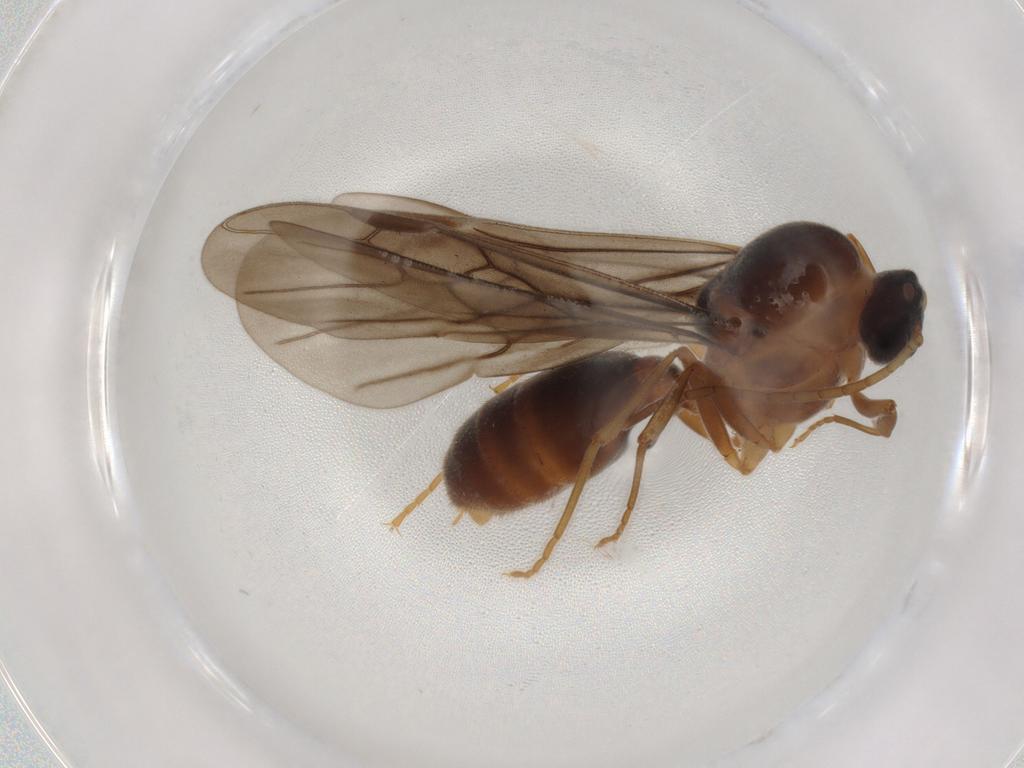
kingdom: Animalia
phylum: Arthropoda
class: Insecta
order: Hymenoptera
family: Formicidae
